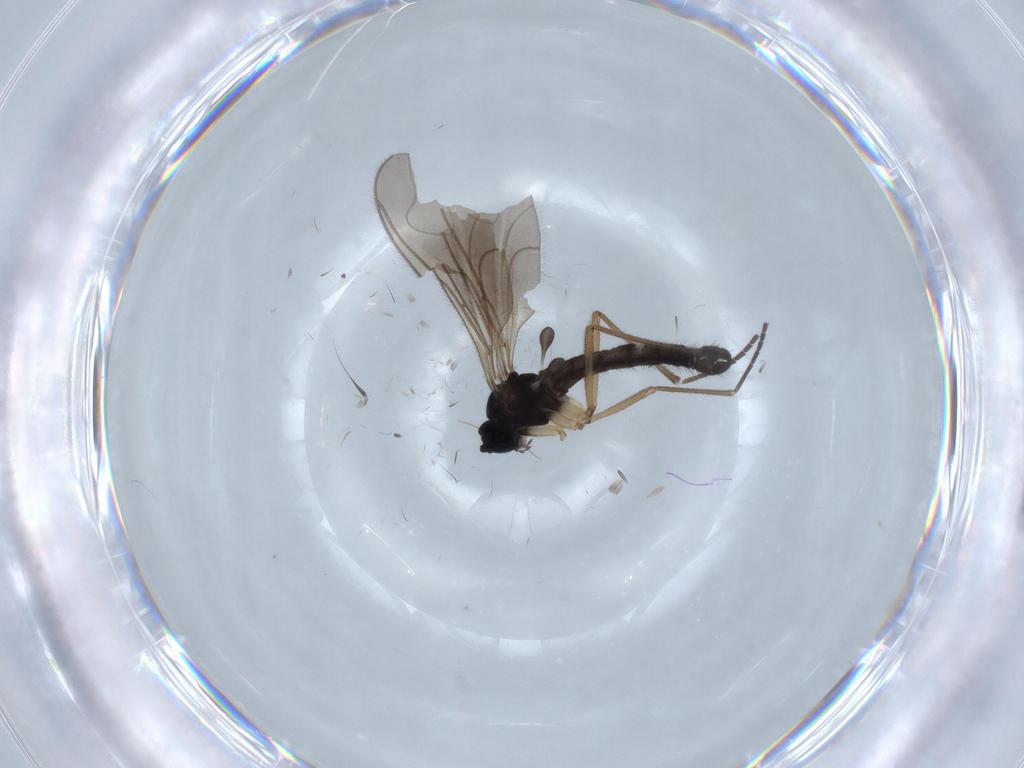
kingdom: Animalia
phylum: Arthropoda
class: Insecta
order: Diptera
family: Sciaridae
